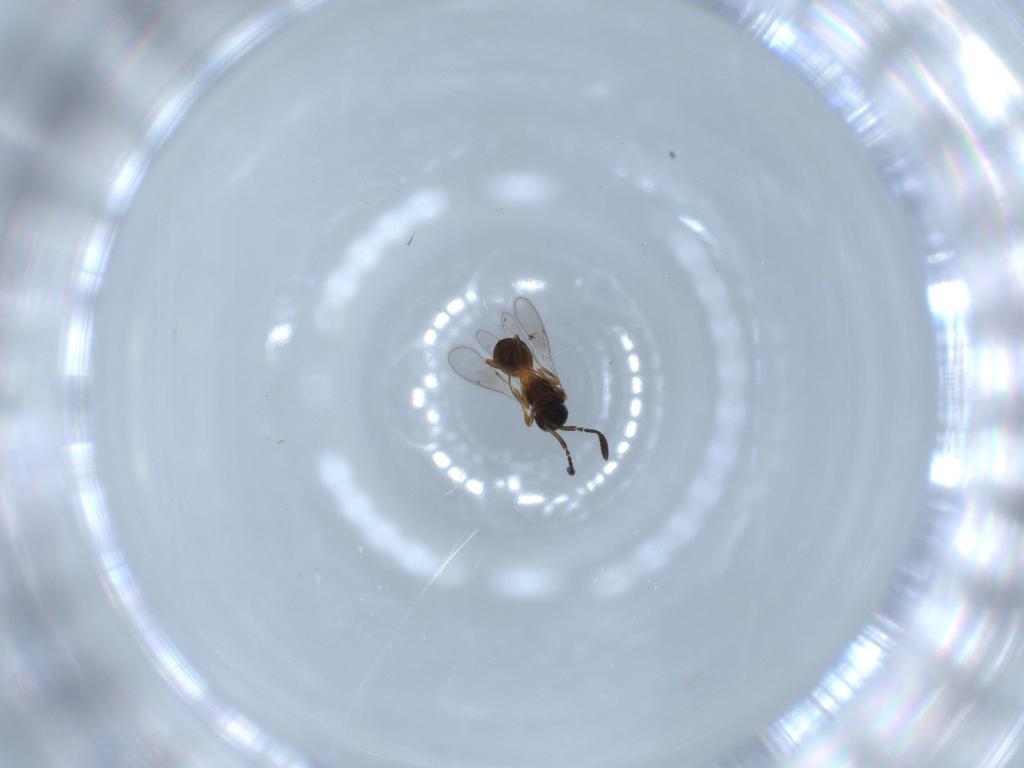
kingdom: Animalia
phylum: Arthropoda
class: Insecta
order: Hymenoptera
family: Scelionidae
